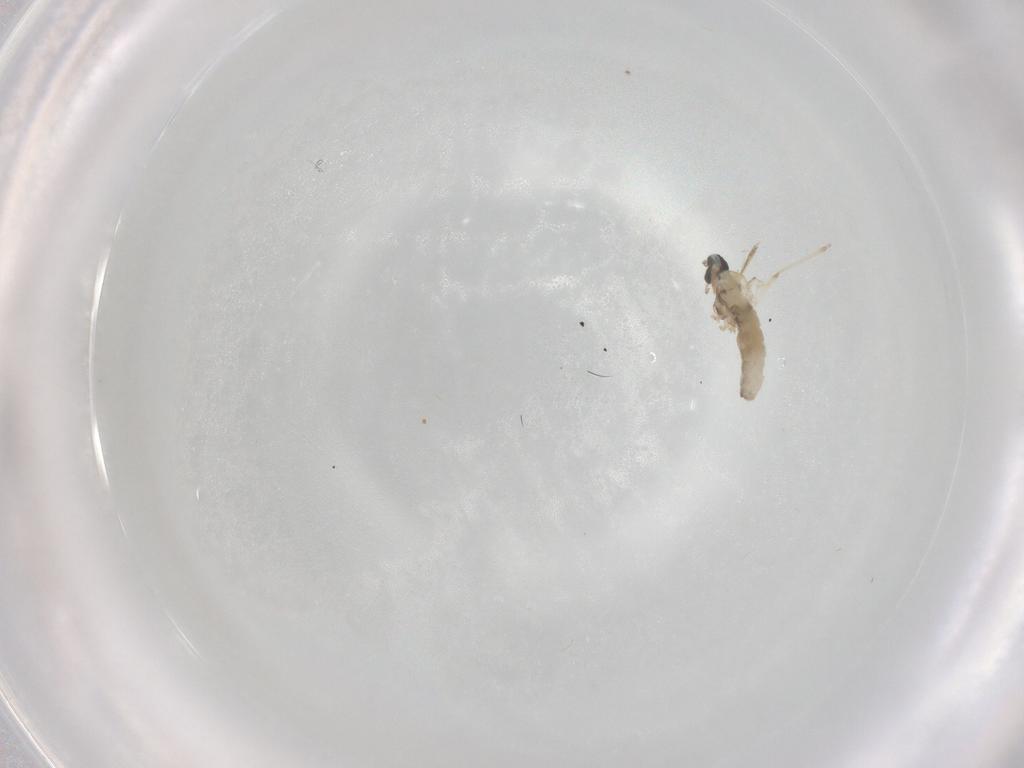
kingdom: Animalia
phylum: Arthropoda
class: Insecta
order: Diptera
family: Cecidomyiidae
